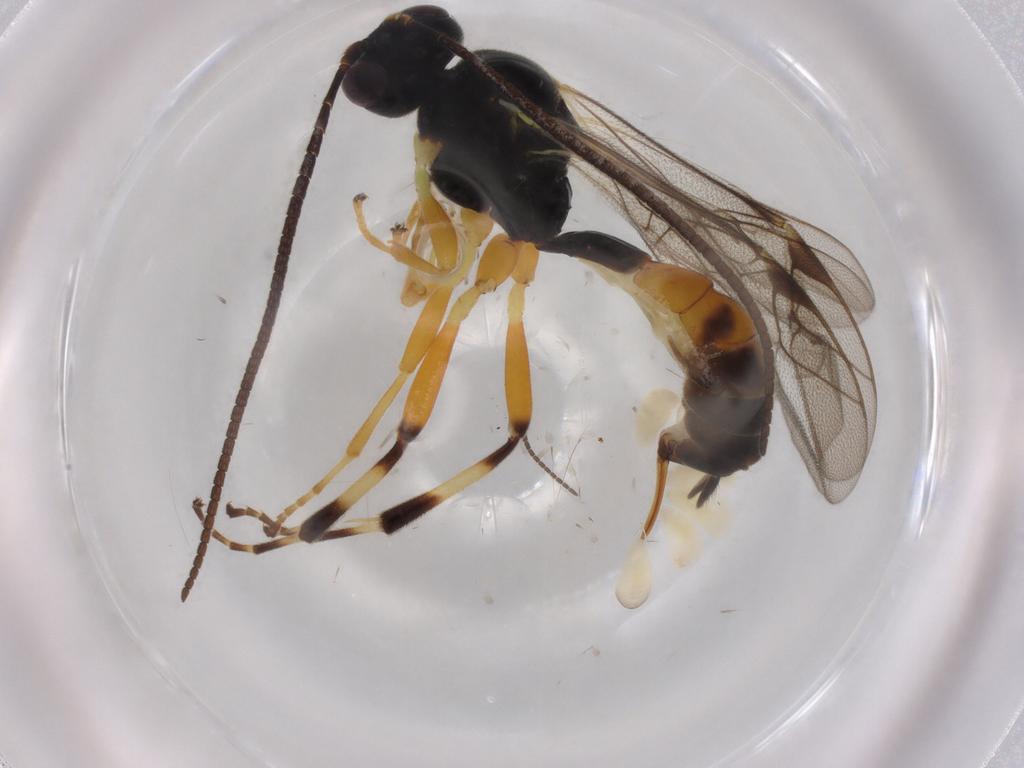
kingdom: Animalia
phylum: Arthropoda
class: Insecta
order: Hymenoptera
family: Ichneumonidae
